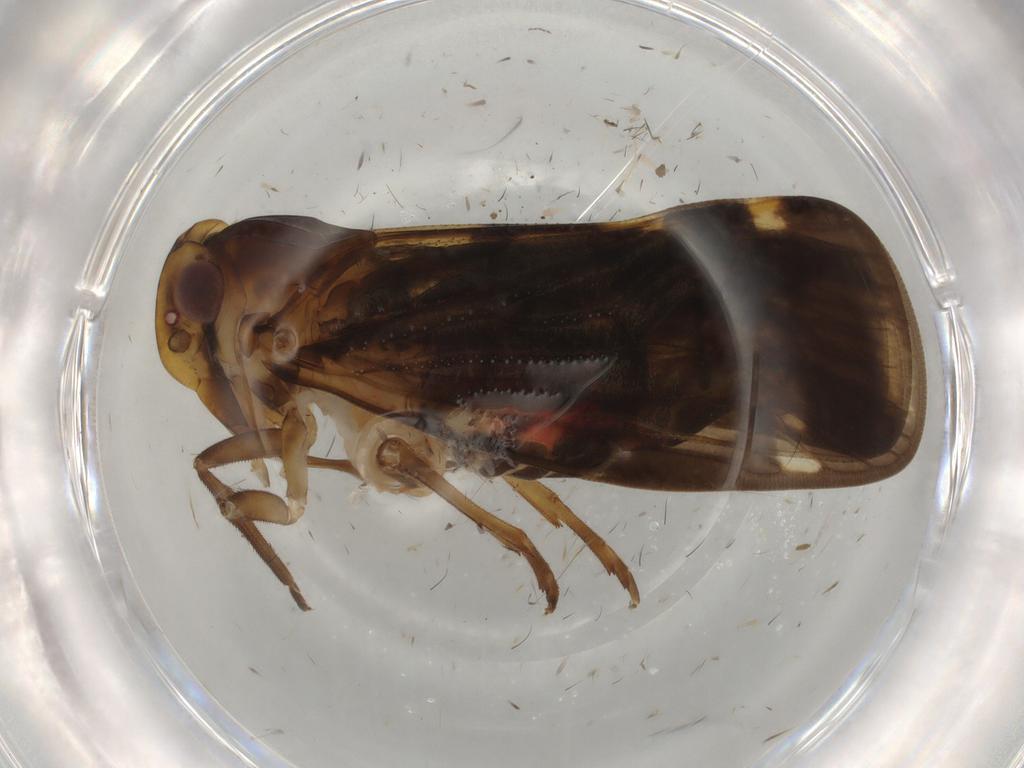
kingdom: Animalia
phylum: Arthropoda
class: Insecta
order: Hemiptera
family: Cixiidae
